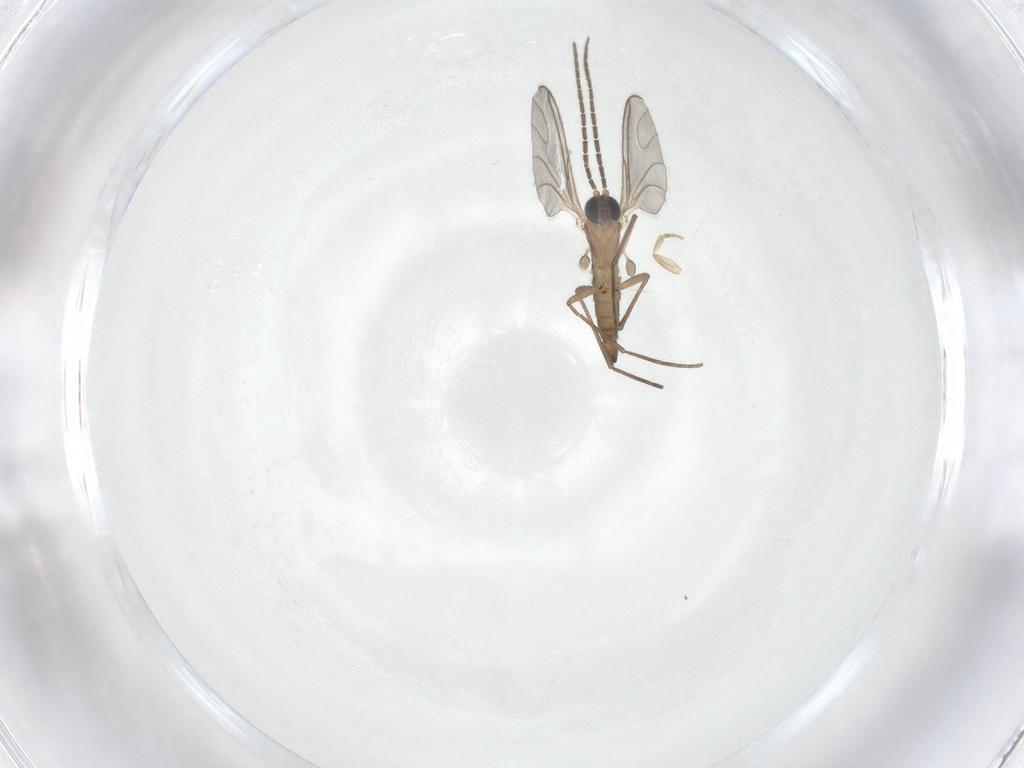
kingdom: Animalia
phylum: Arthropoda
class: Insecta
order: Diptera
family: Sciaridae
